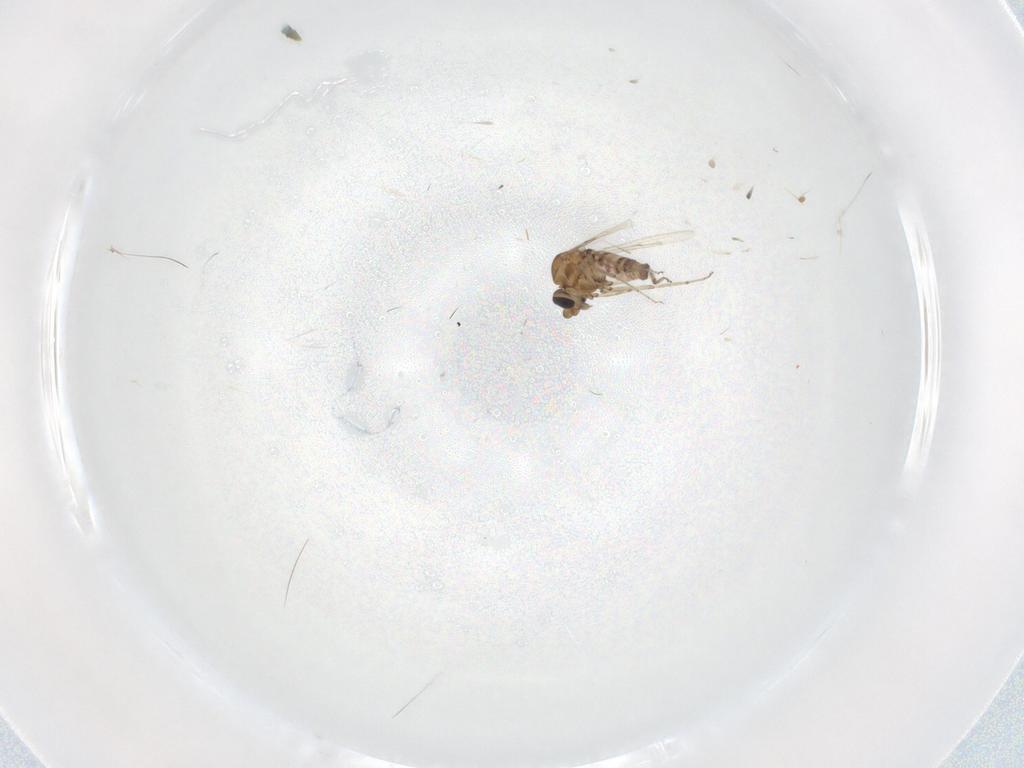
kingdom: Animalia
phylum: Arthropoda
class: Insecta
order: Diptera
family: Ceratopogonidae
